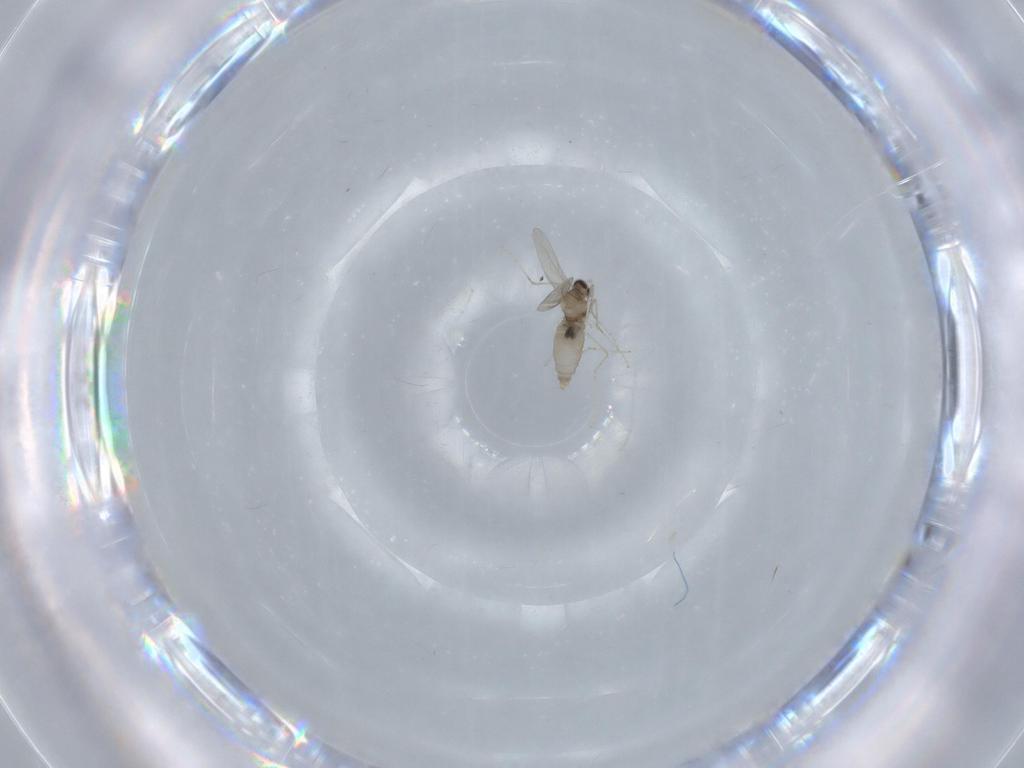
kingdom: Animalia
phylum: Arthropoda
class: Insecta
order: Diptera
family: Cecidomyiidae
